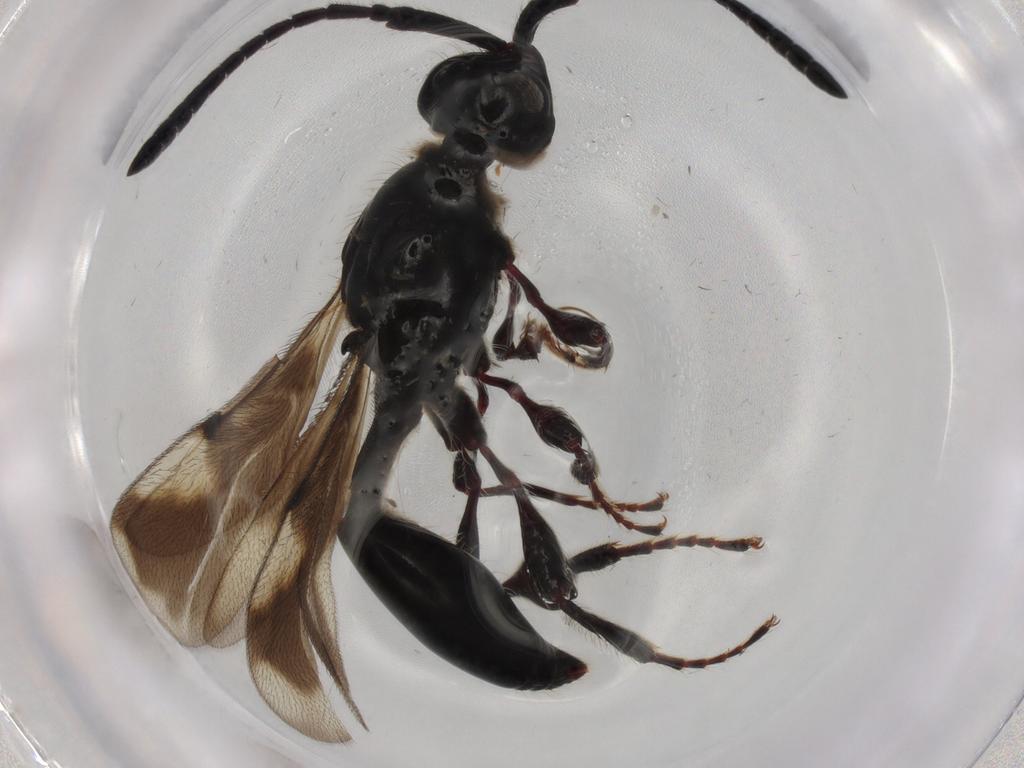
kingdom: Animalia
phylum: Arthropoda
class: Insecta
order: Hymenoptera
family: Diapriidae
